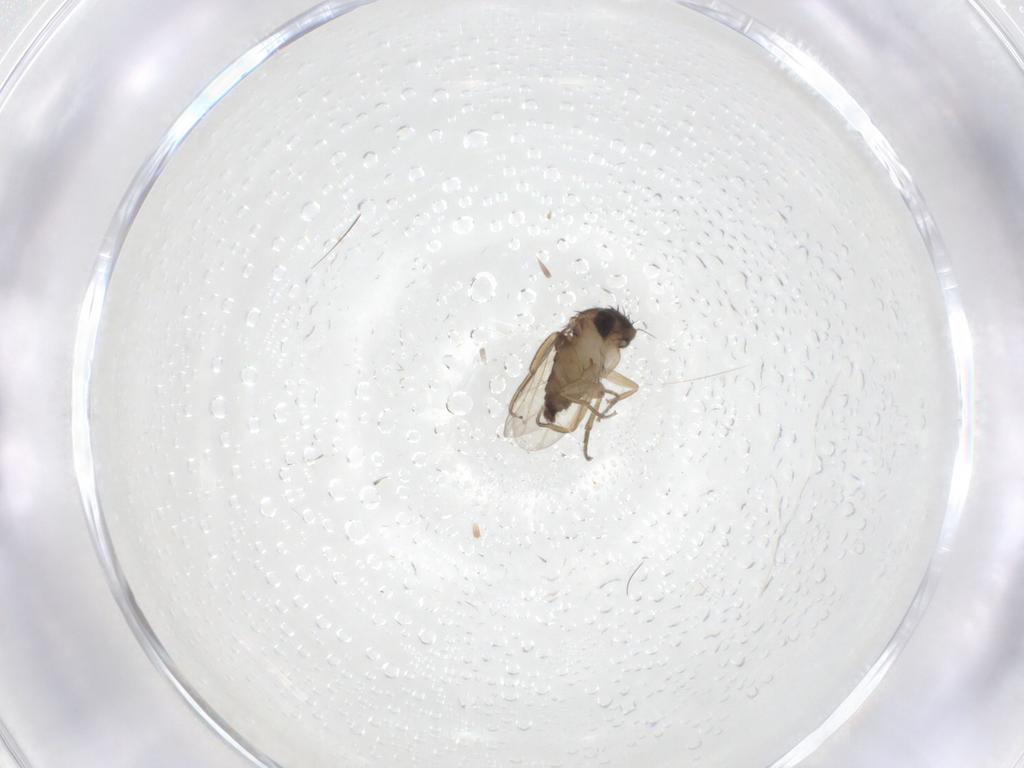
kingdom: Animalia
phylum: Arthropoda
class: Insecta
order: Diptera
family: Phoridae
